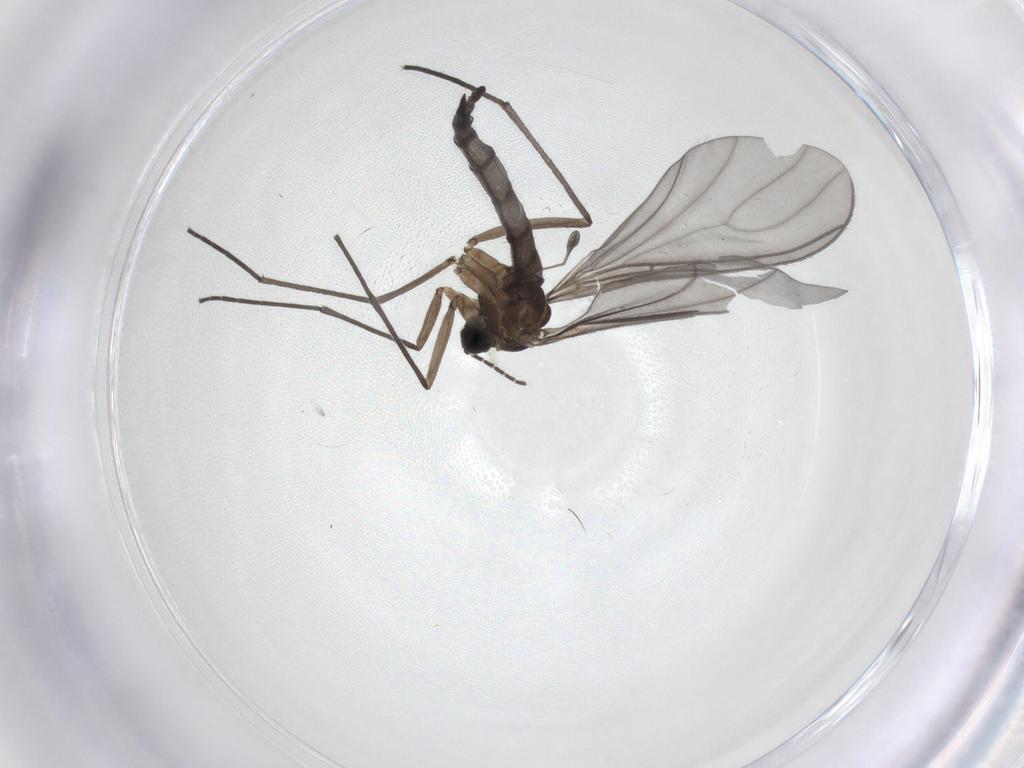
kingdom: Animalia
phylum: Arthropoda
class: Insecta
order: Diptera
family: Sciaridae
